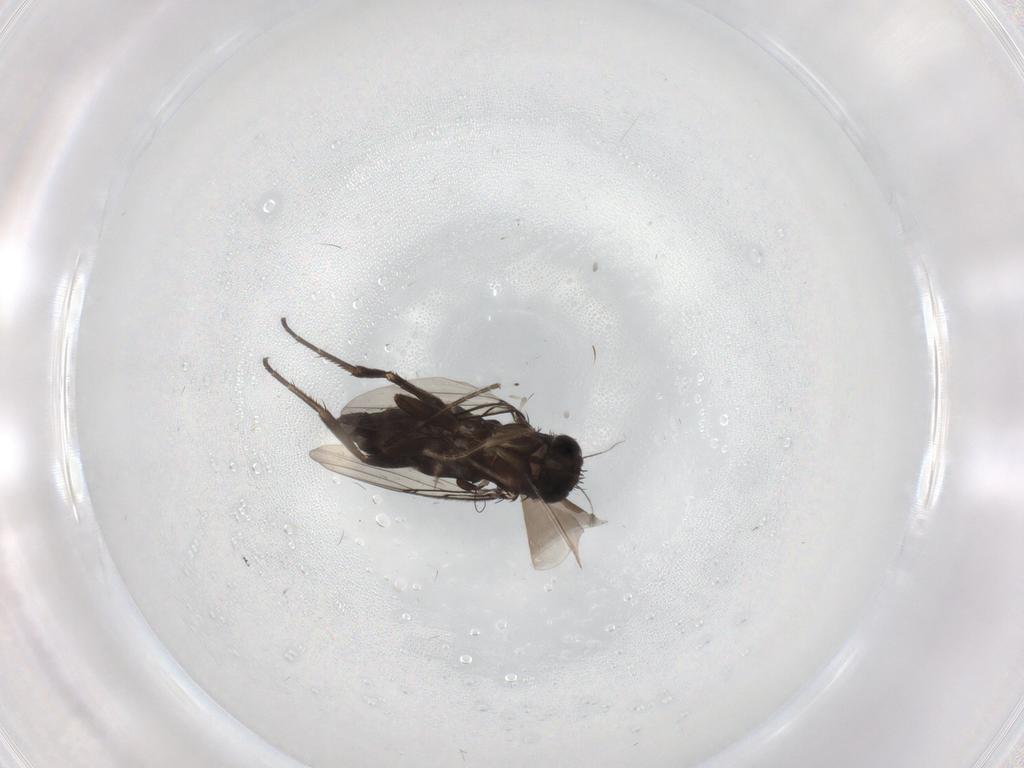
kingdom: Animalia
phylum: Arthropoda
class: Insecta
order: Diptera
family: Phoridae
